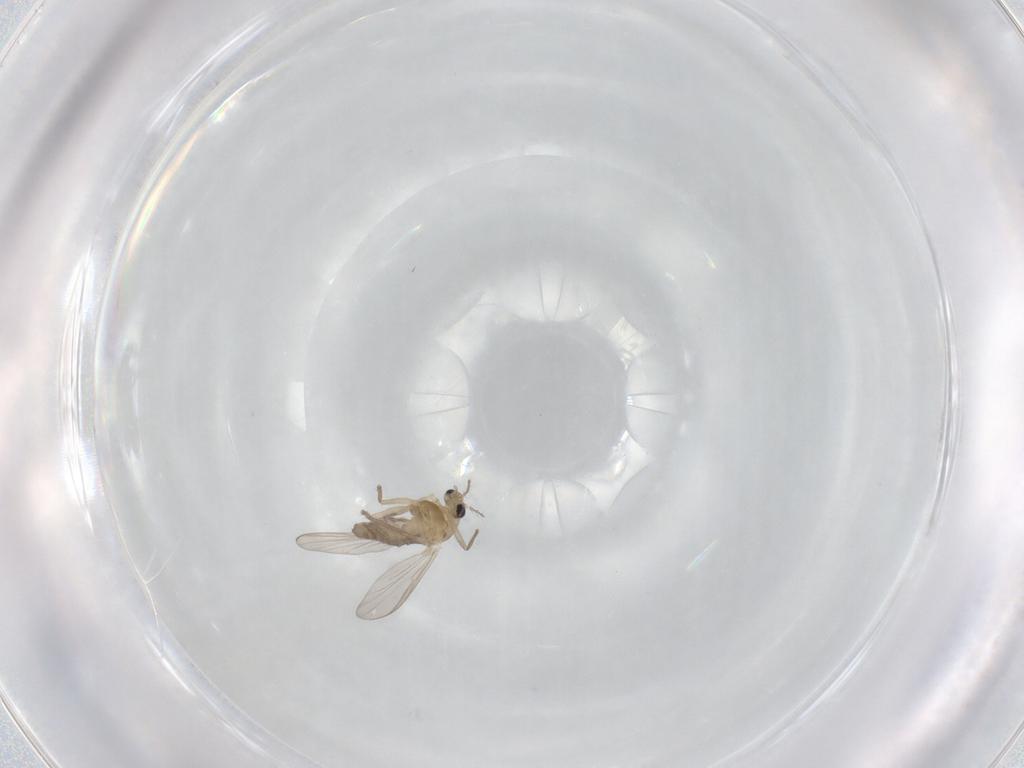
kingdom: Animalia
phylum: Arthropoda
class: Insecta
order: Diptera
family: Chironomidae
